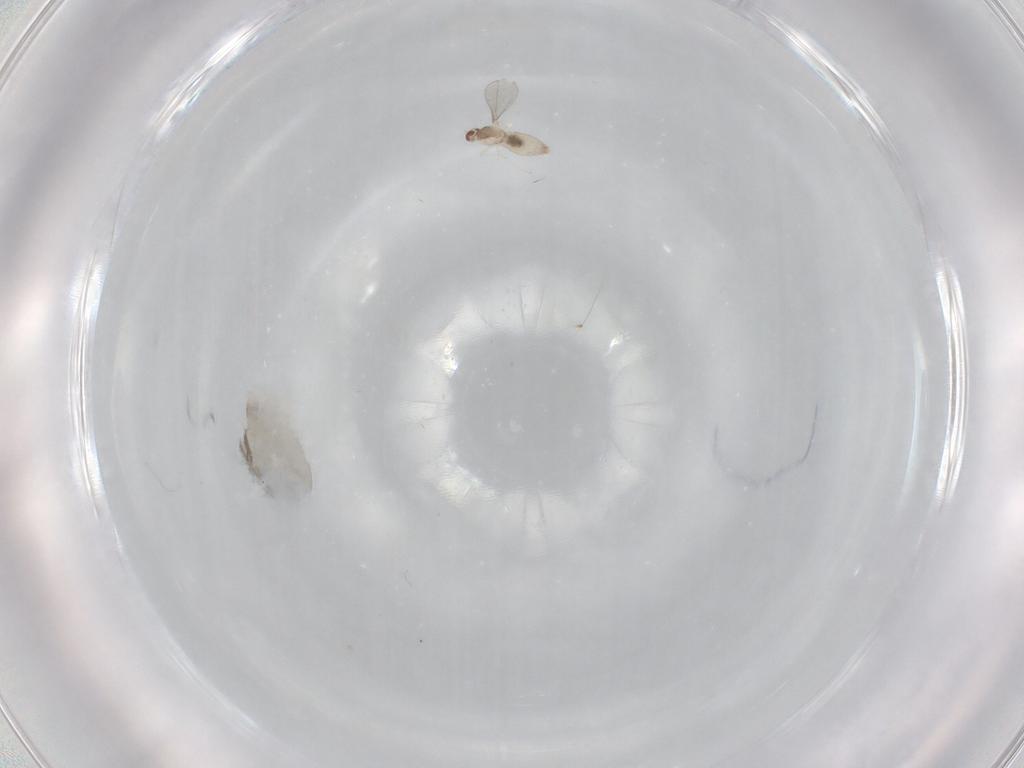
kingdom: Animalia
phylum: Arthropoda
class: Insecta
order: Diptera
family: Cecidomyiidae
